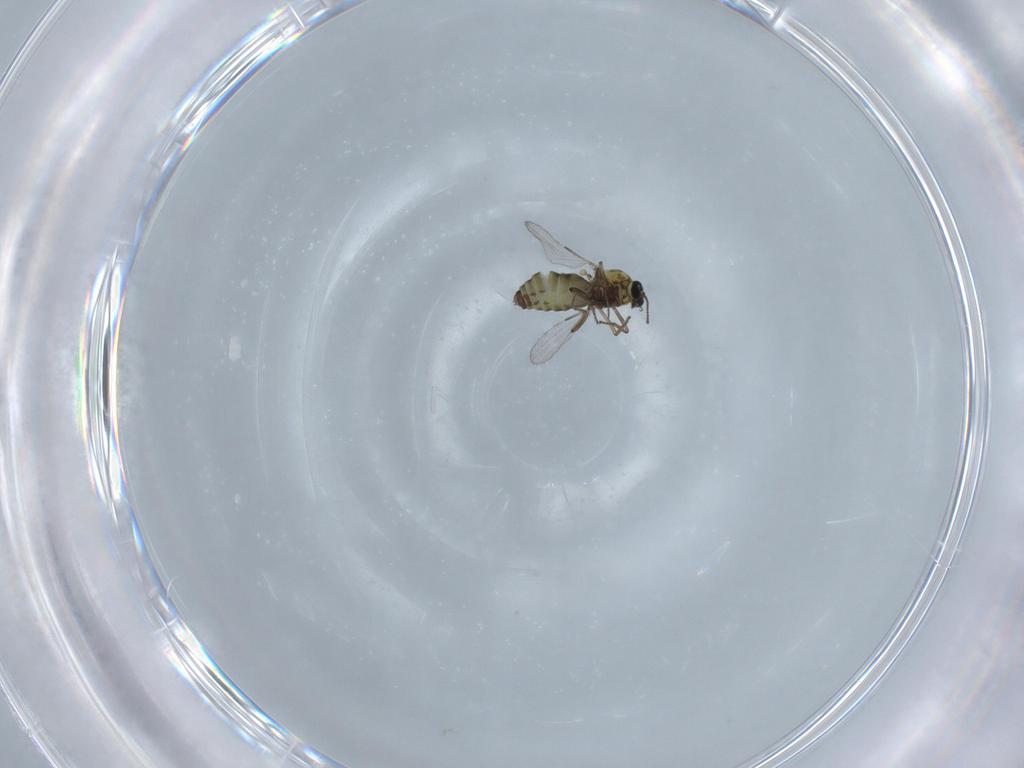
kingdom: Animalia
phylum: Arthropoda
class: Insecta
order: Diptera
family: Ceratopogonidae
